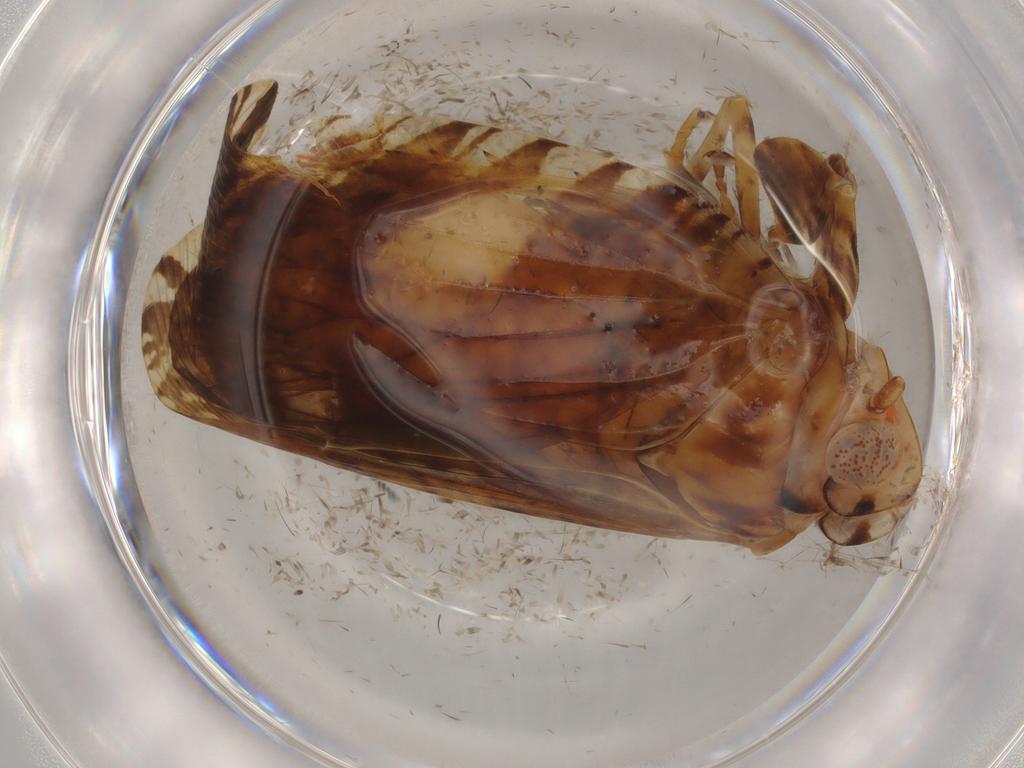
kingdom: Animalia
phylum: Arthropoda
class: Insecta
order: Hemiptera
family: Lophopidae
